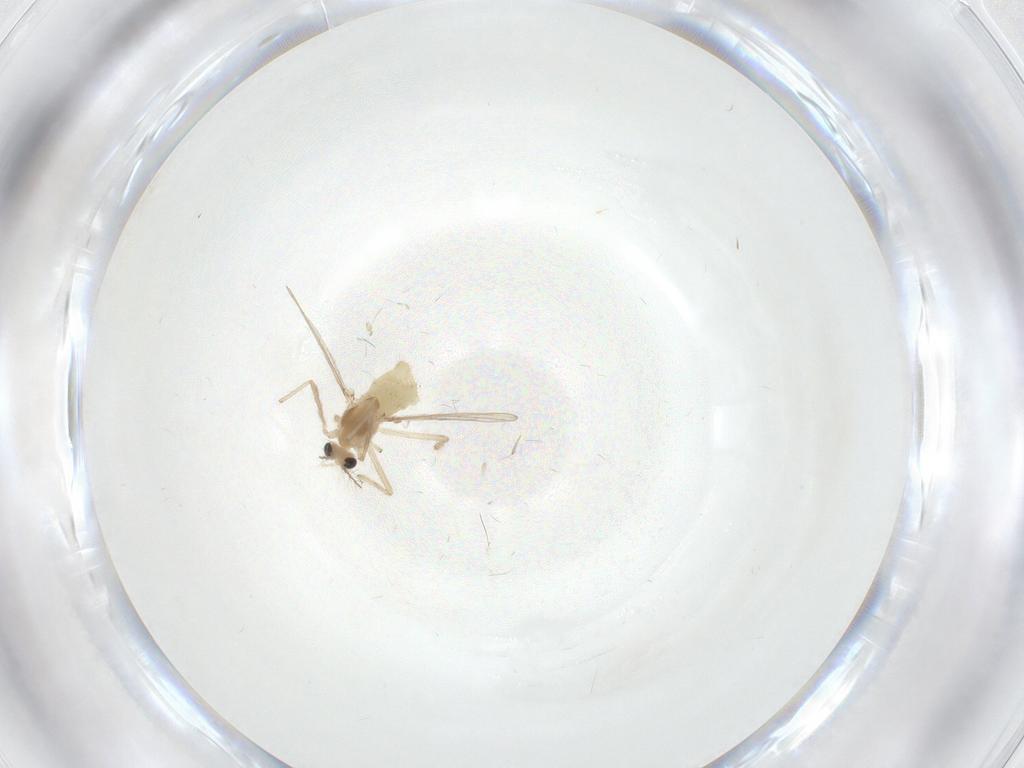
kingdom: Animalia
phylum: Arthropoda
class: Insecta
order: Diptera
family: Chironomidae
